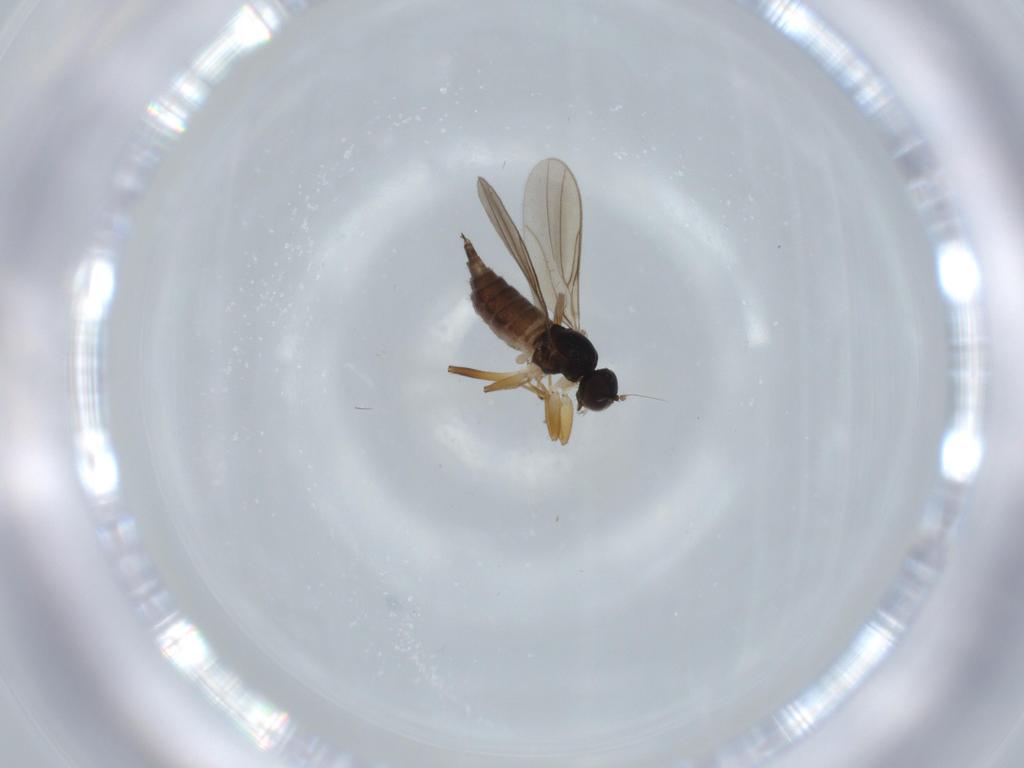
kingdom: Animalia
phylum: Arthropoda
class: Insecta
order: Diptera
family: Hybotidae
